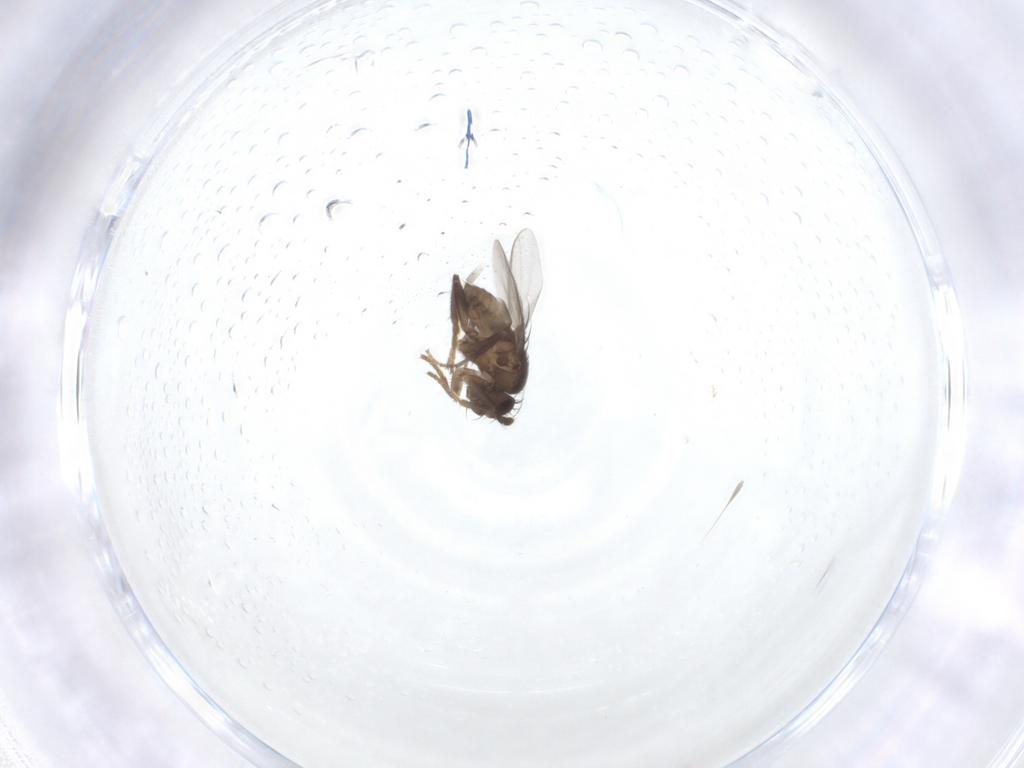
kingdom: Animalia
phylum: Arthropoda
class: Insecta
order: Diptera
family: Sphaeroceridae
